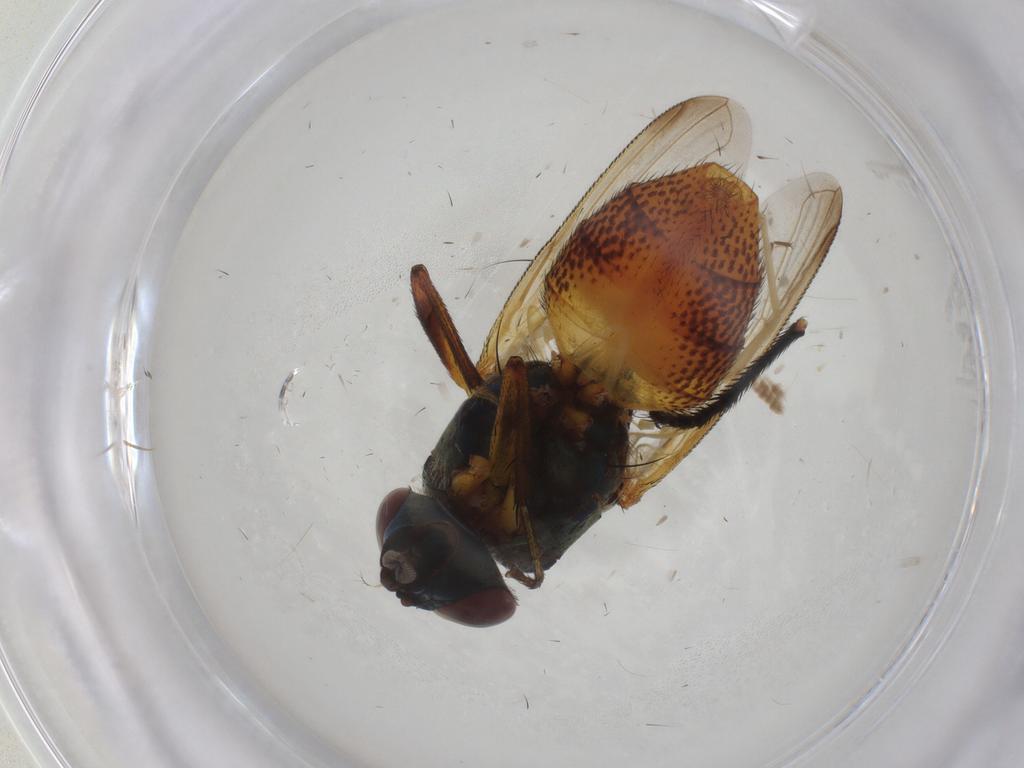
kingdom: Animalia
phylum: Arthropoda
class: Insecta
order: Diptera
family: Calliphoridae
